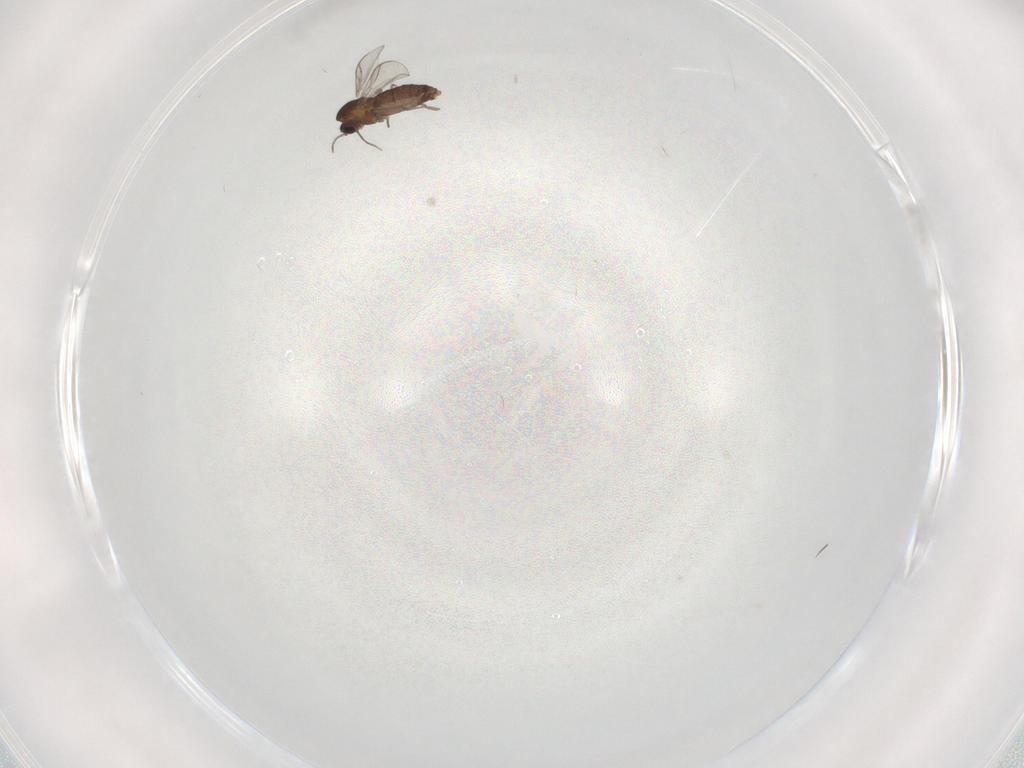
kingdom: Animalia
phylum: Arthropoda
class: Insecta
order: Diptera
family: Chironomidae
